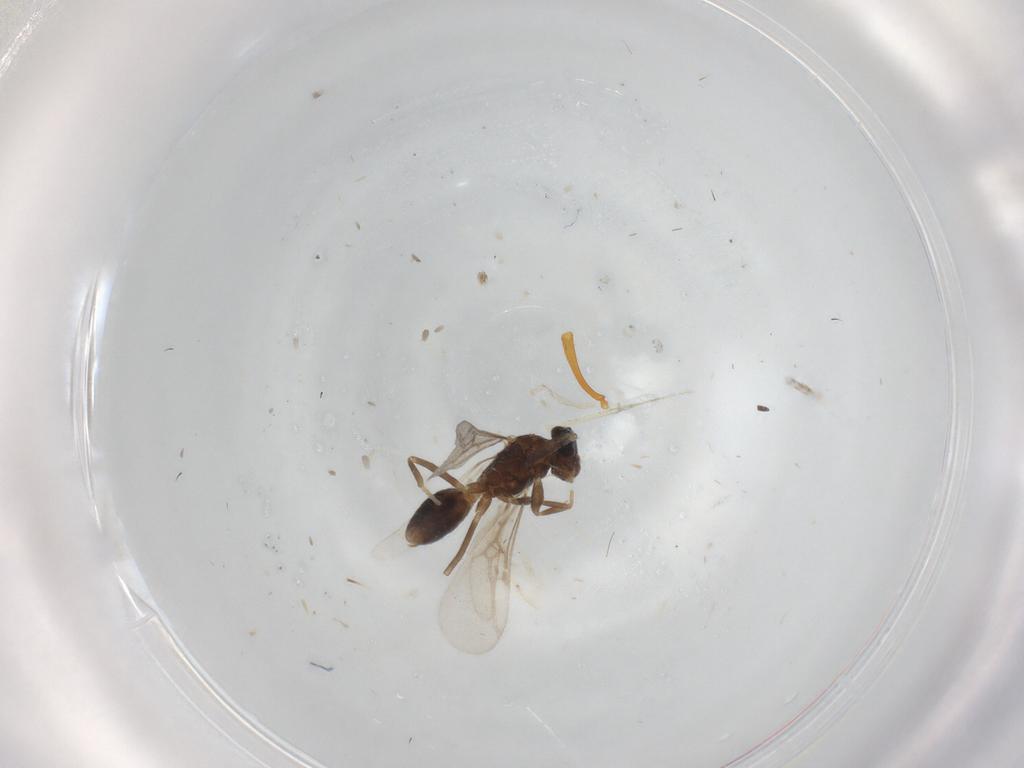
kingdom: Animalia
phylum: Arthropoda
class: Insecta
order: Hymenoptera
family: Formicidae
